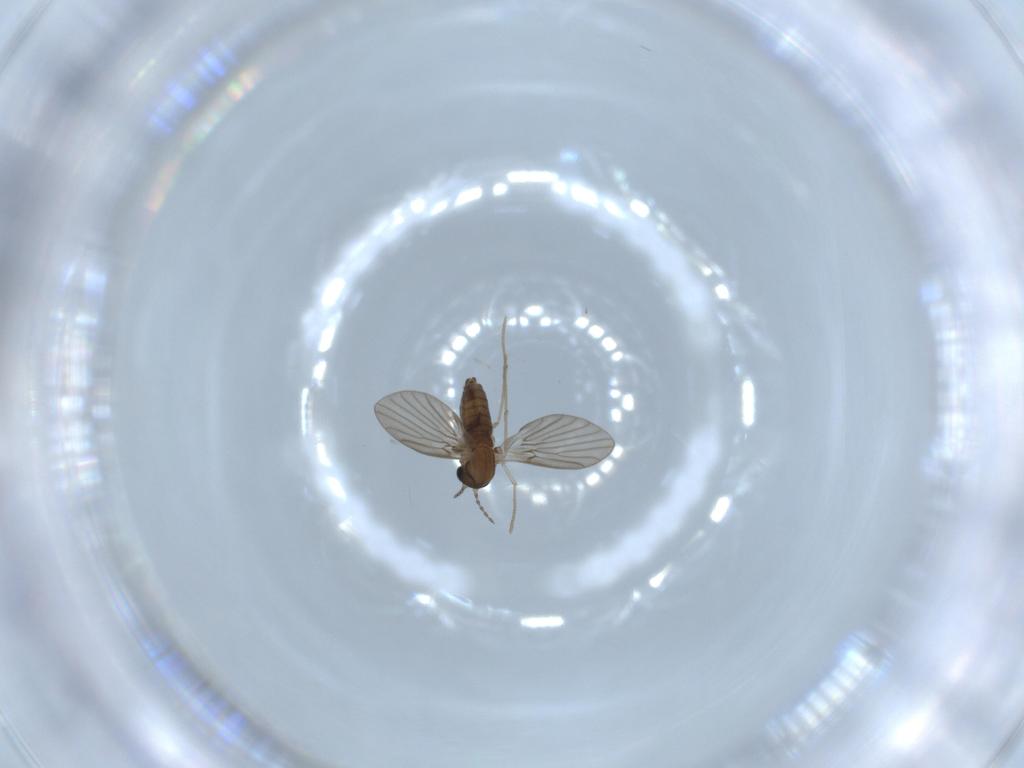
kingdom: Animalia
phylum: Arthropoda
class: Insecta
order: Diptera
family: Psychodidae
